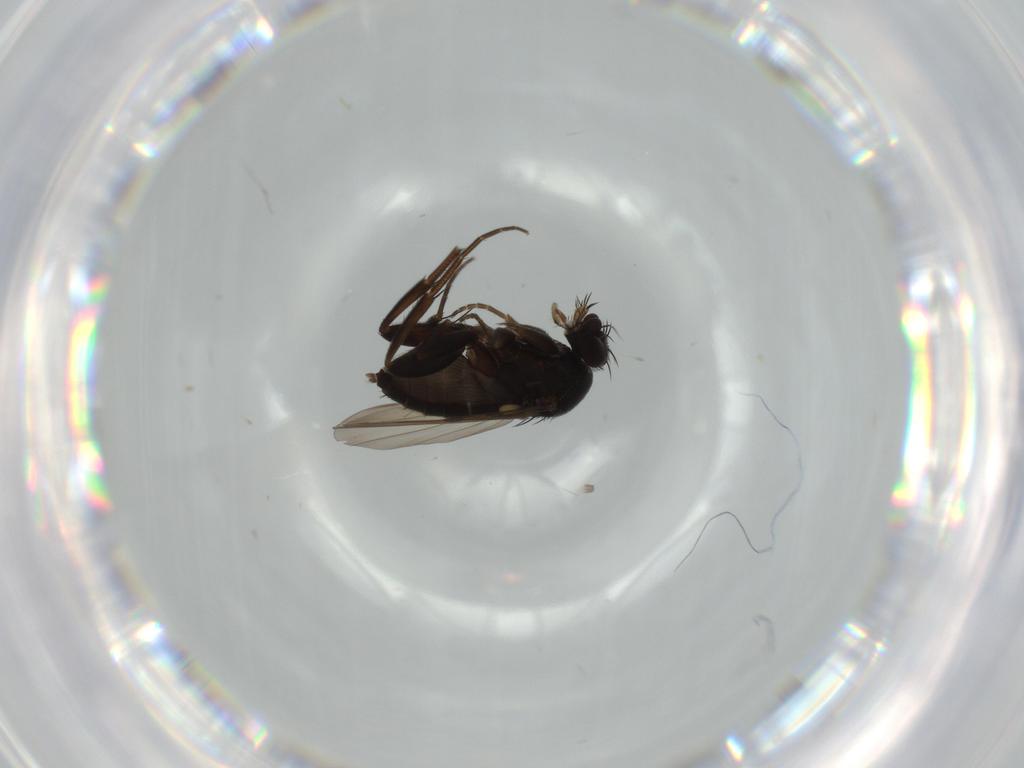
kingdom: Animalia
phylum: Arthropoda
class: Insecta
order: Diptera
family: Phoridae
